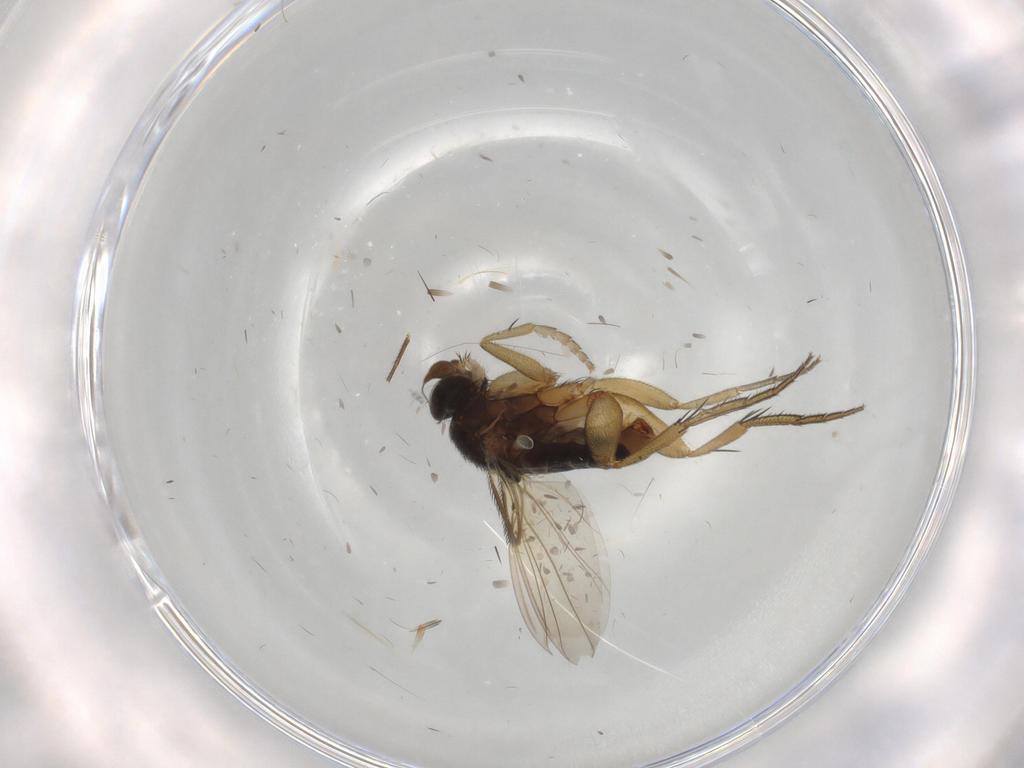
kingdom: Animalia
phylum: Arthropoda
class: Insecta
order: Diptera
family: Phoridae
